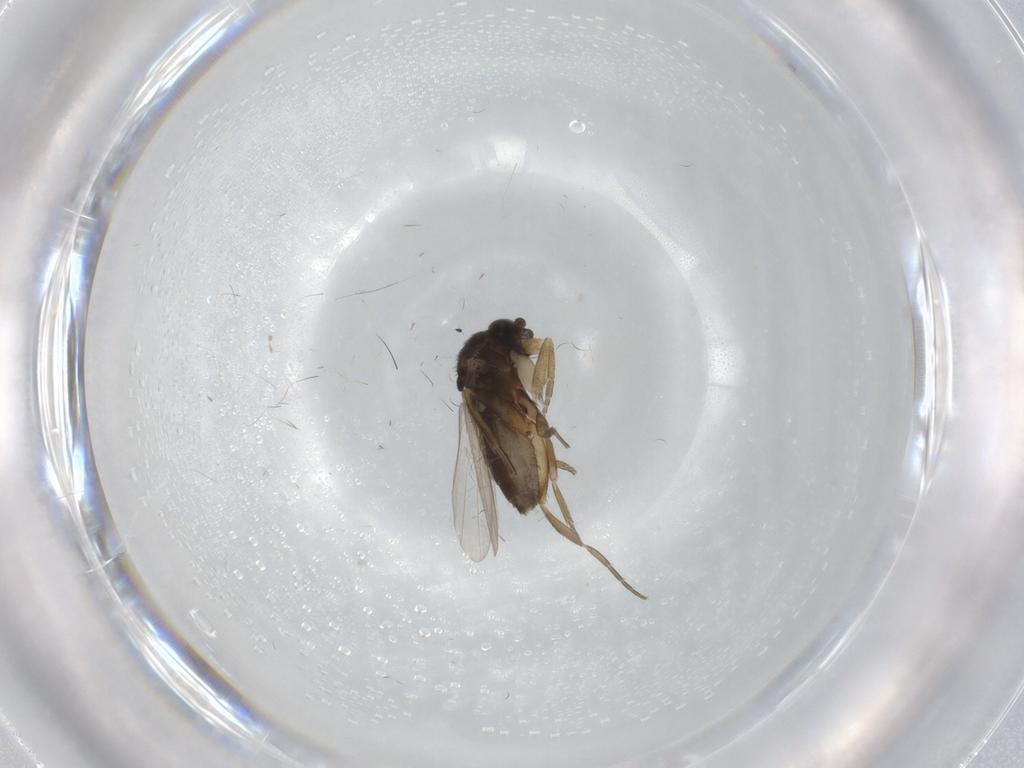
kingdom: Animalia
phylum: Arthropoda
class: Insecta
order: Diptera
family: Phoridae
